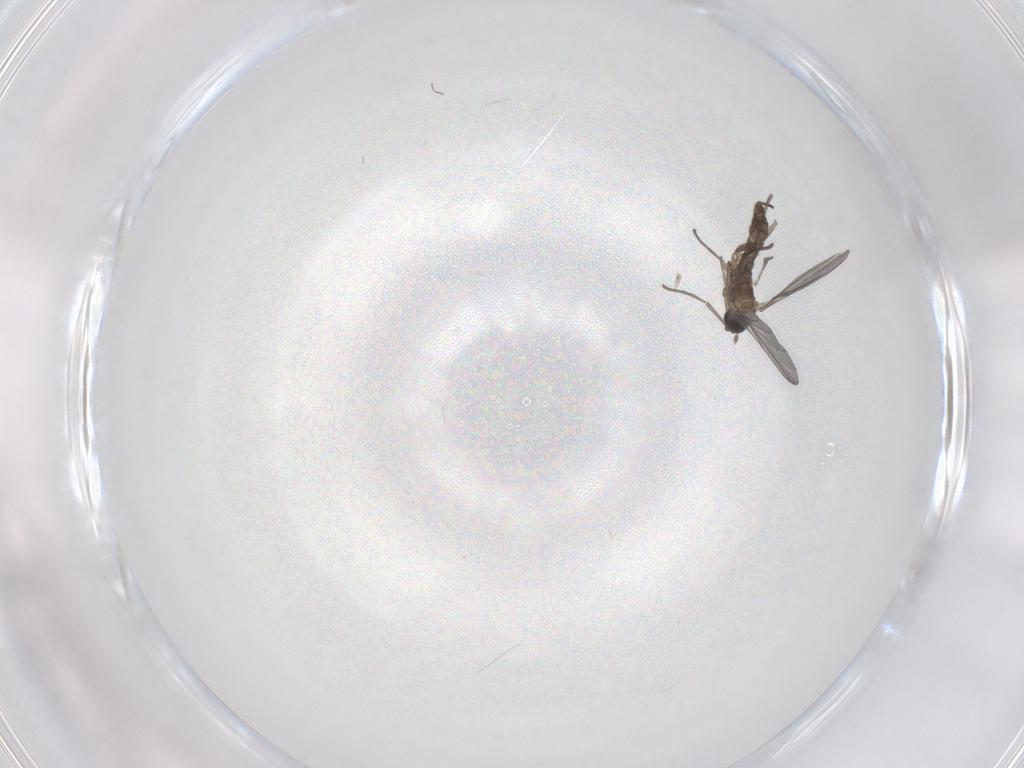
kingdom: Animalia
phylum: Arthropoda
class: Insecta
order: Diptera
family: Sciaridae
